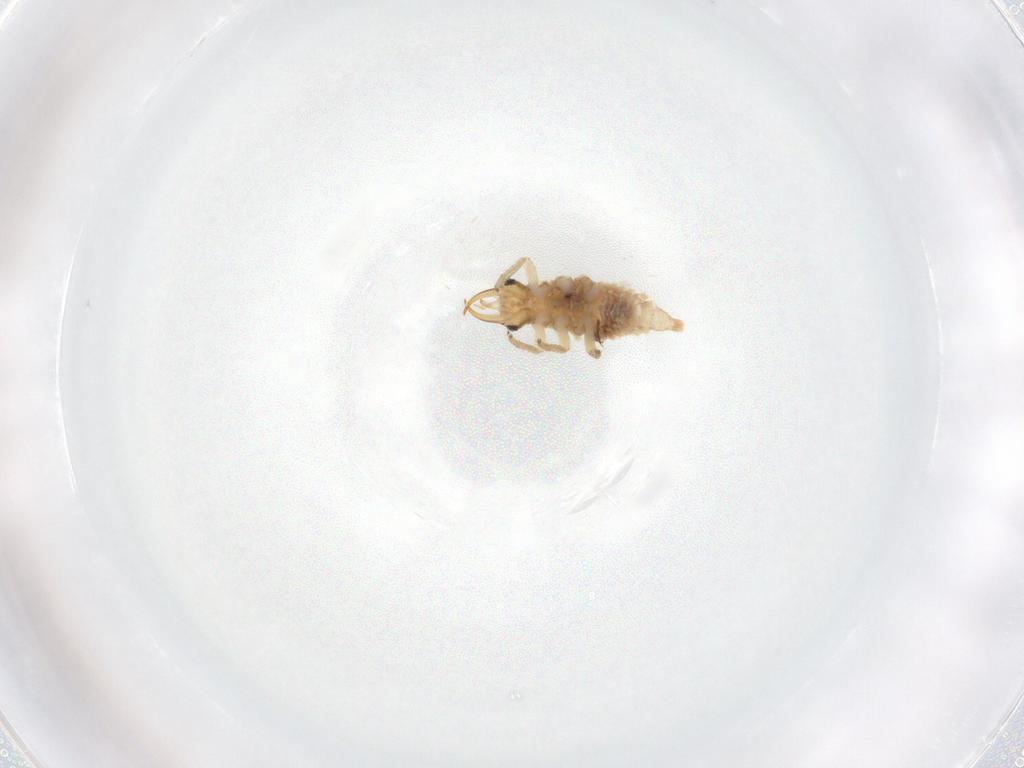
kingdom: Animalia
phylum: Arthropoda
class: Insecta
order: Neuroptera
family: Chrysopidae
